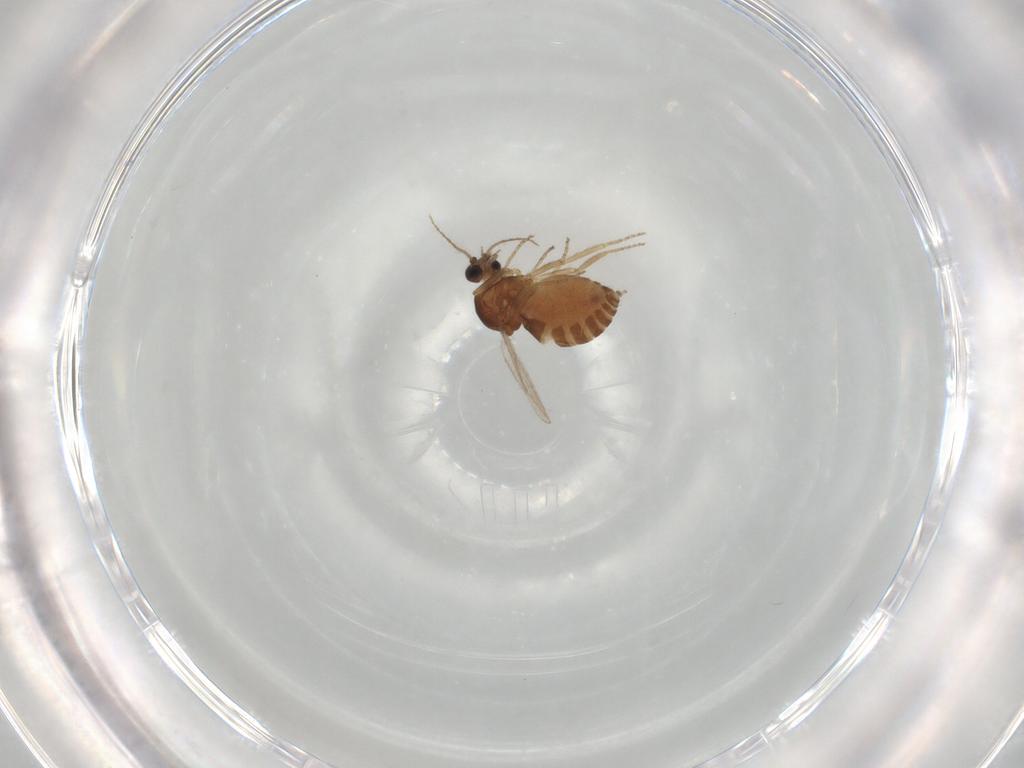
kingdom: Animalia
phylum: Arthropoda
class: Insecta
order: Diptera
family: Ceratopogonidae
